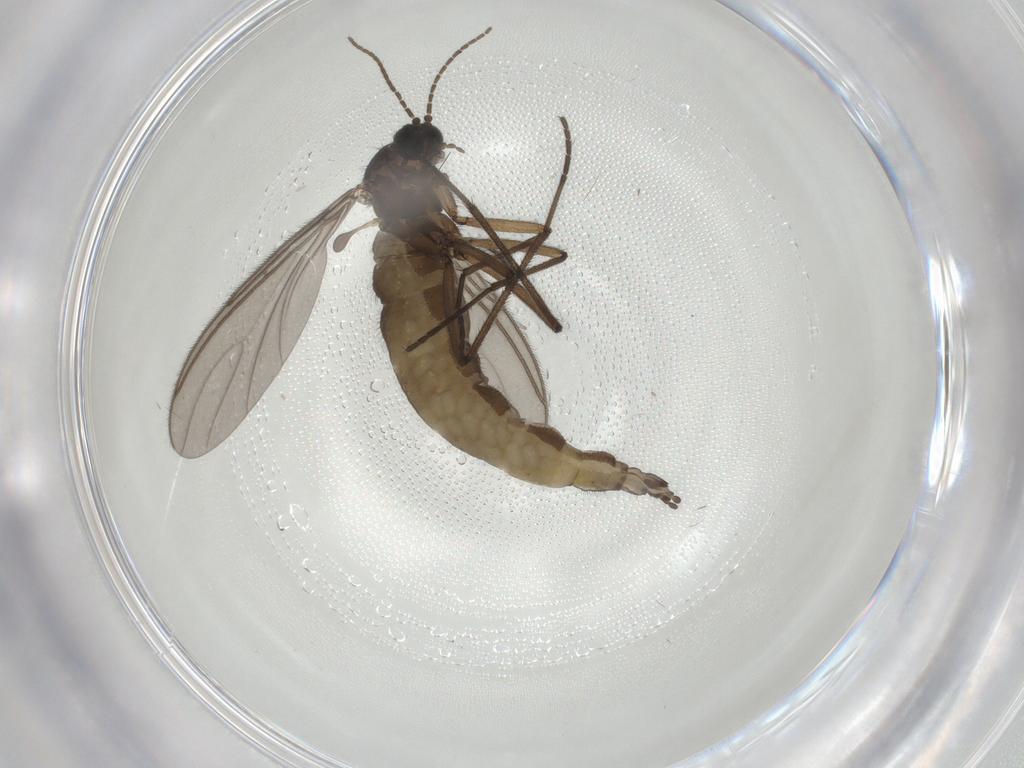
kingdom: Animalia
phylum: Arthropoda
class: Insecta
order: Diptera
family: Sciaridae
